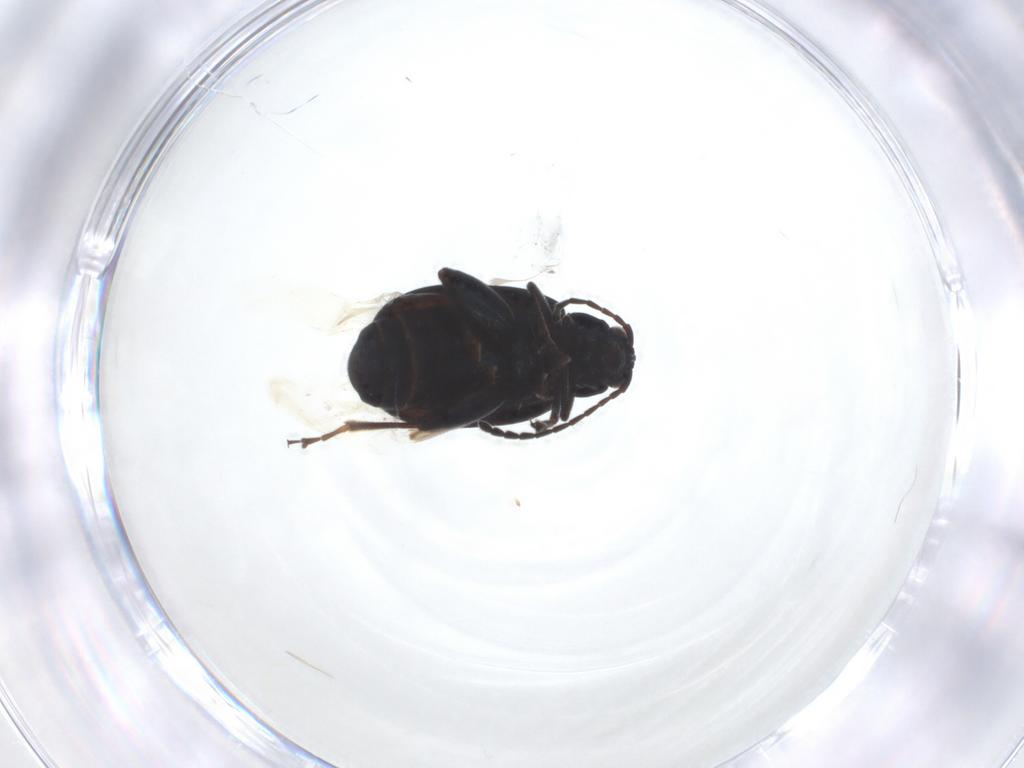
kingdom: Animalia
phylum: Arthropoda
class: Insecta
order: Coleoptera
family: Chrysomelidae
